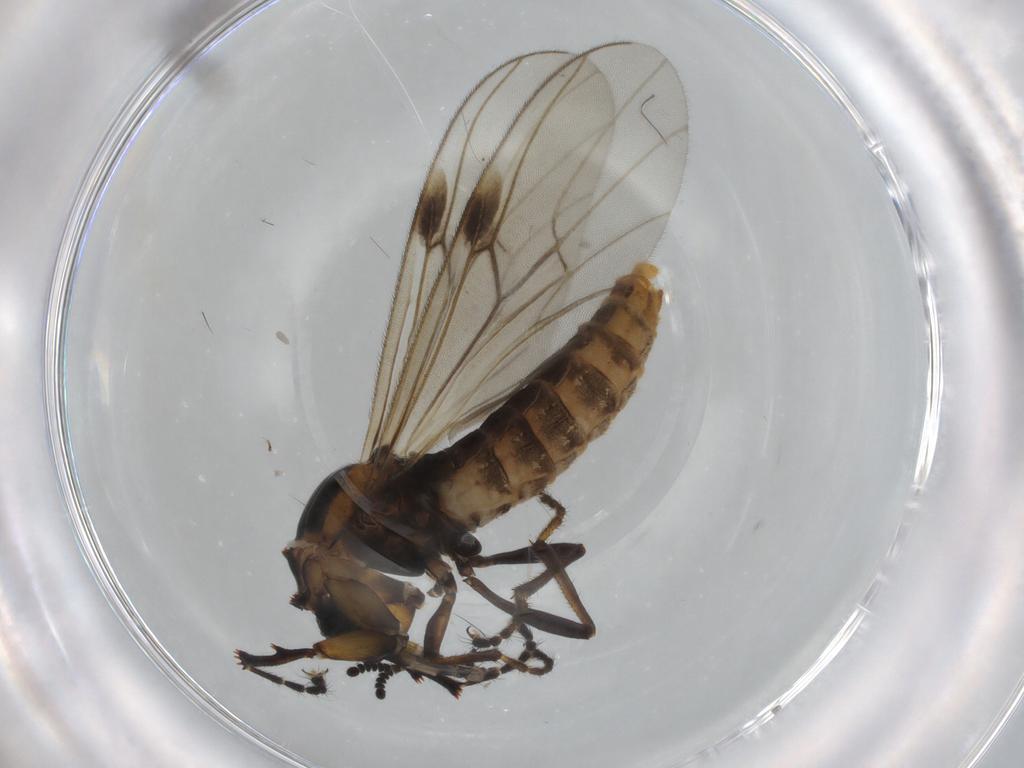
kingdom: Animalia
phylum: Arthropoda
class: Insecta
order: Diptera
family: Bibionidae
